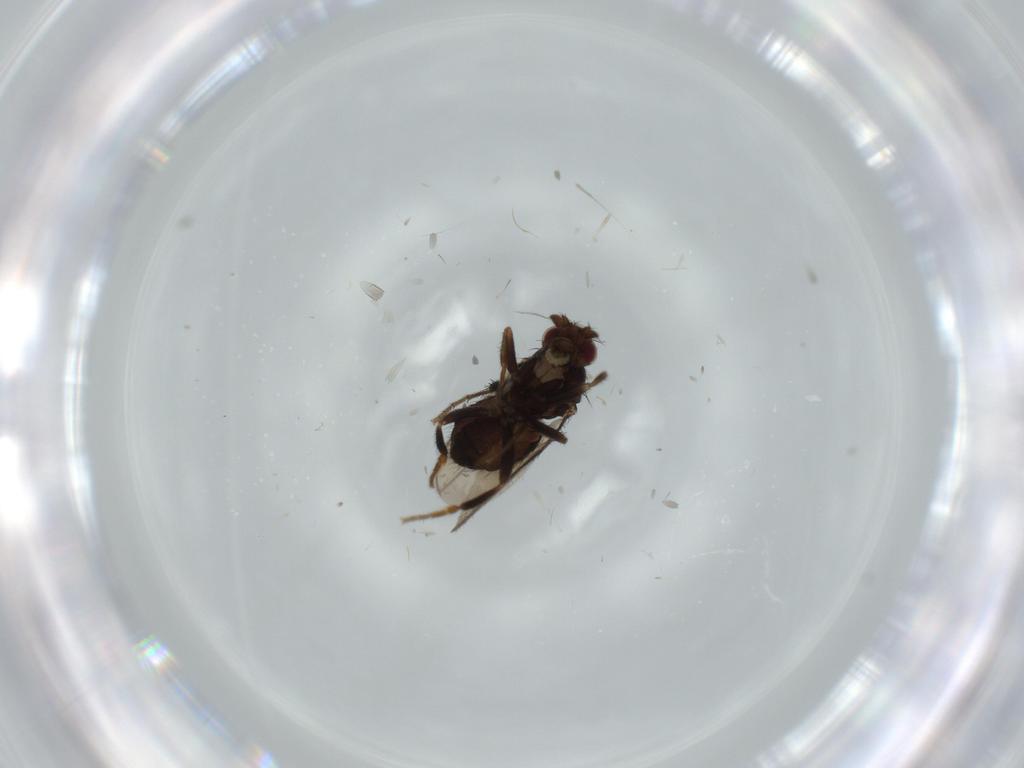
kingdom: Animalia
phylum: Arthropoda
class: Insecta
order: Diptera
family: Sphaeroceridae
